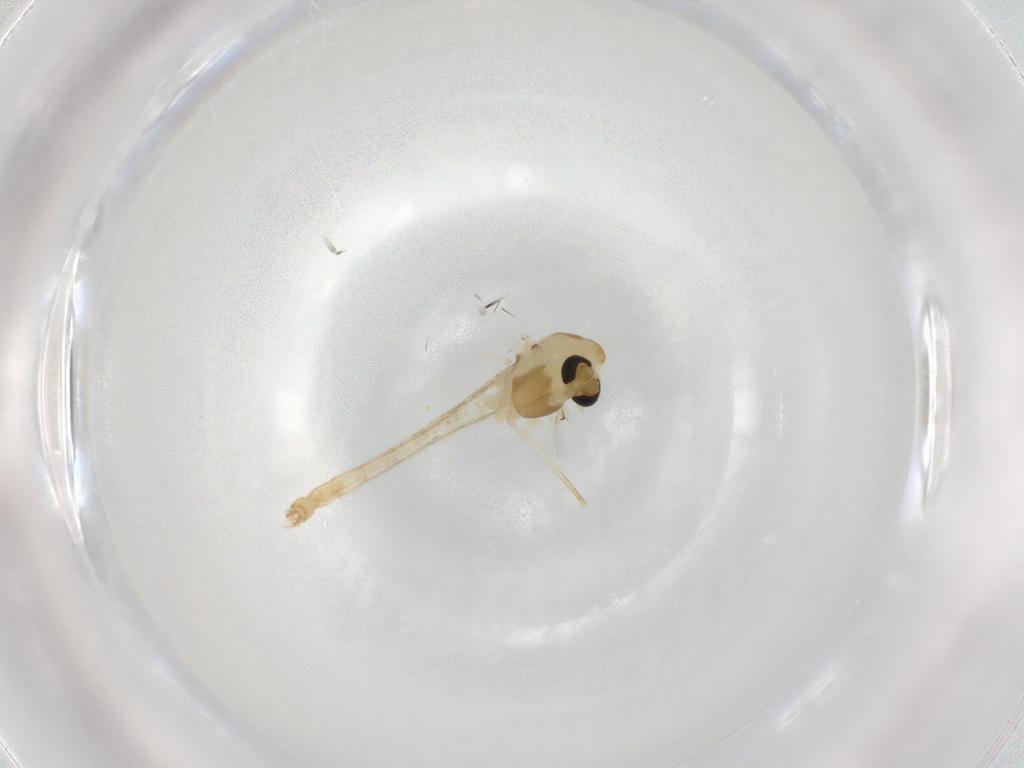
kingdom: Animalia
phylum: Arthropoda
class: Insecta
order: Diptera
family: Chironomidae
